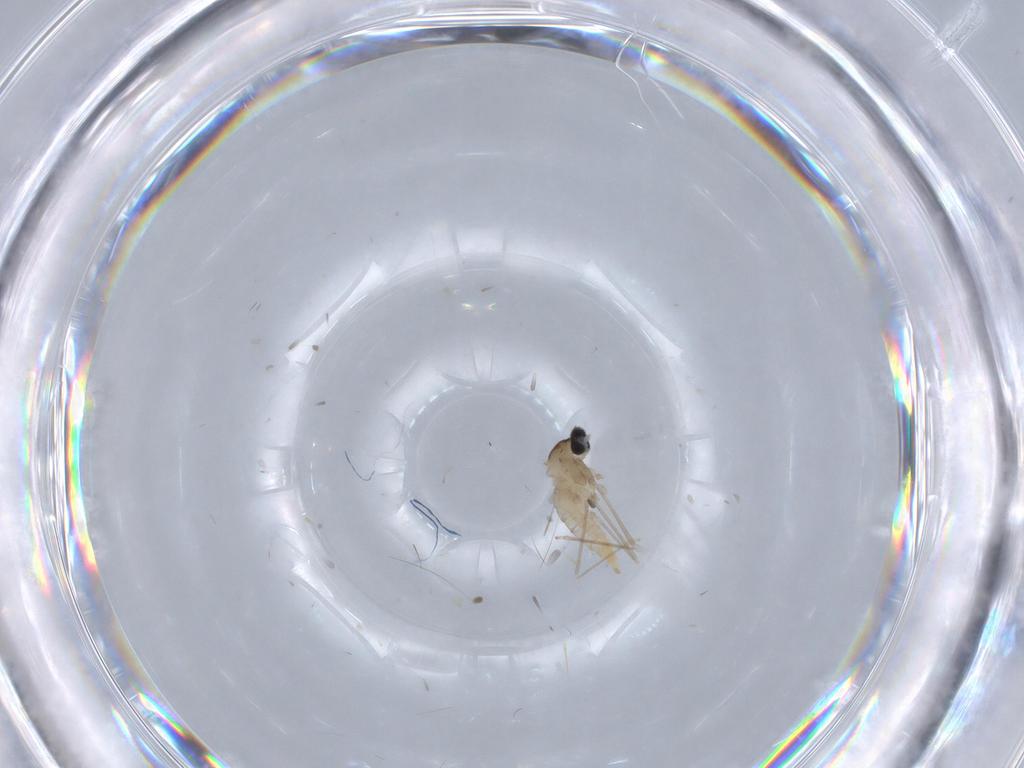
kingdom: Animalia
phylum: Arthropoda
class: Insecta
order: Diptera
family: Cecidomyiidae
